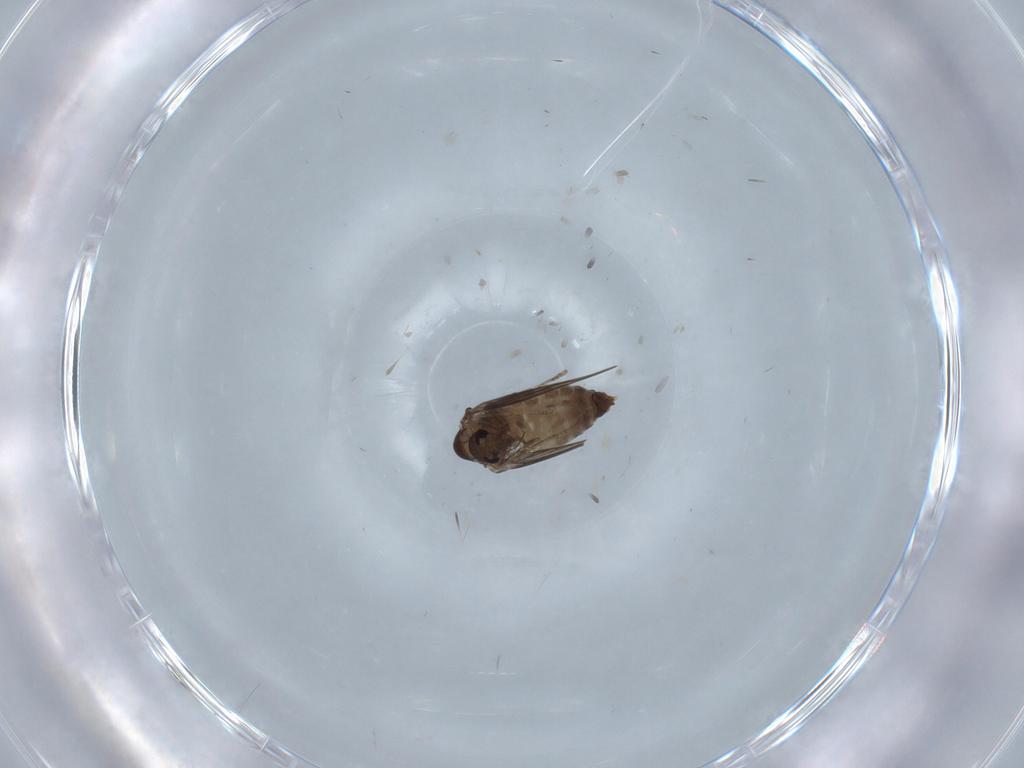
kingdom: Animalia
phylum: Arthropoda
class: Insecta
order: Diptera
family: Psychodidae
